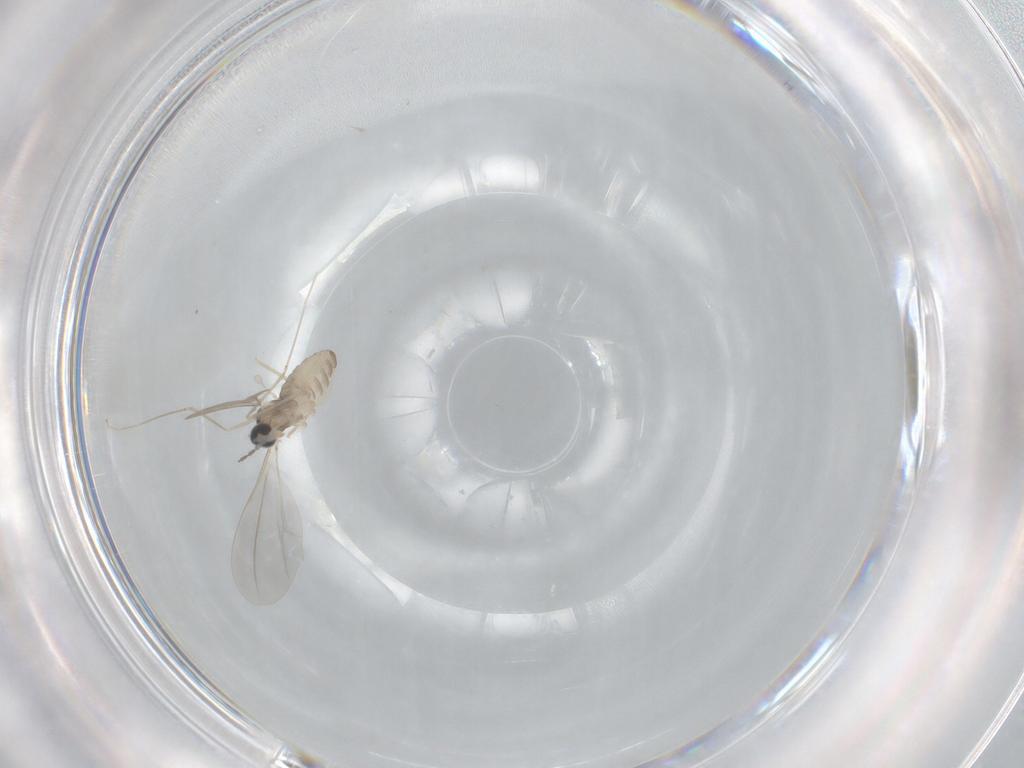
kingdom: Animalia
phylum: Arthropoda
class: Insecta
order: Diptera
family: Cecidomyiidae
